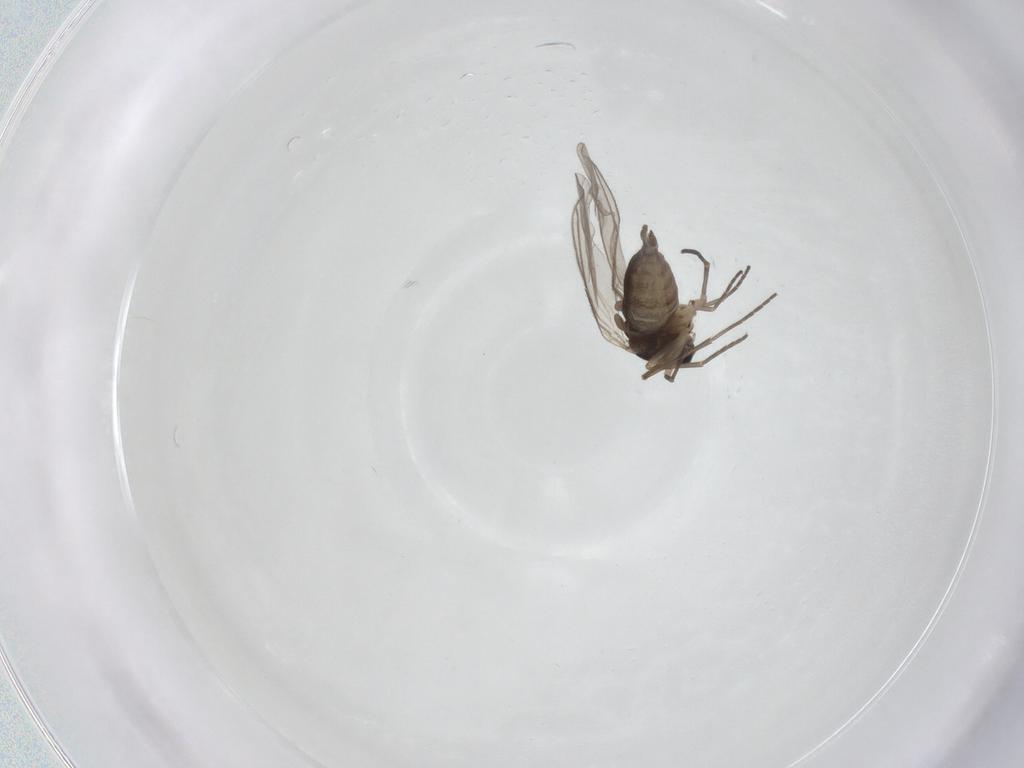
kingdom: Animalia
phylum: Arthropoda
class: Insecta
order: Diptera
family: Sciaridae
